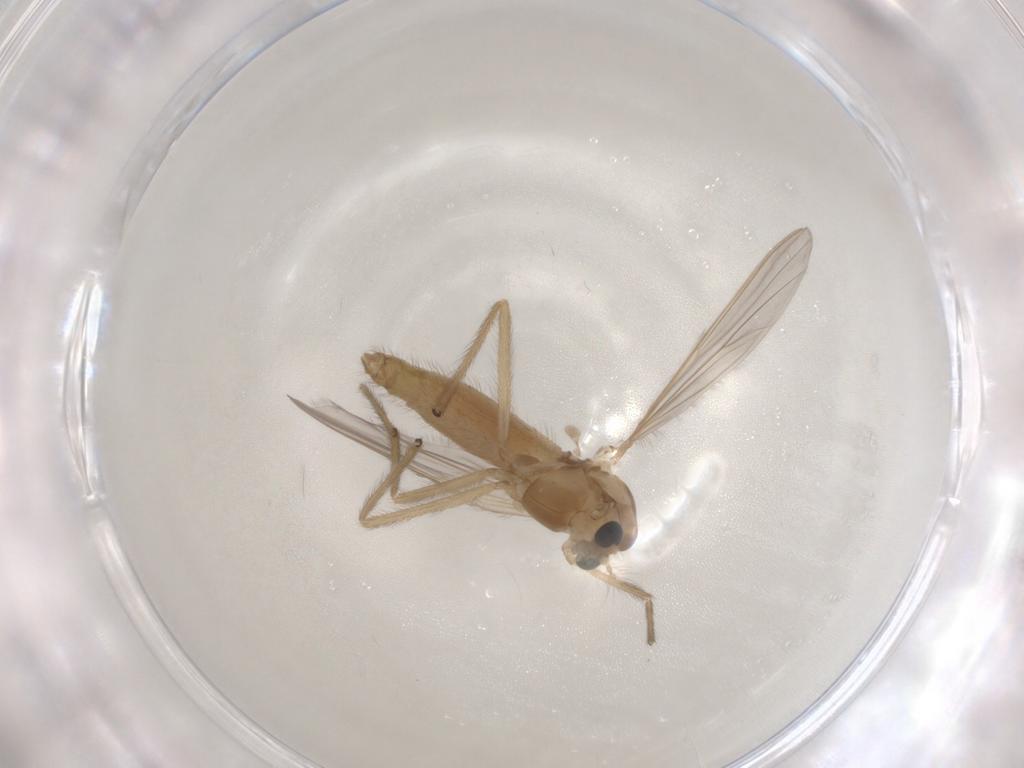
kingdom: Animalia
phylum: Arthropoda
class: Insecta
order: Diptera
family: Chironomidae
